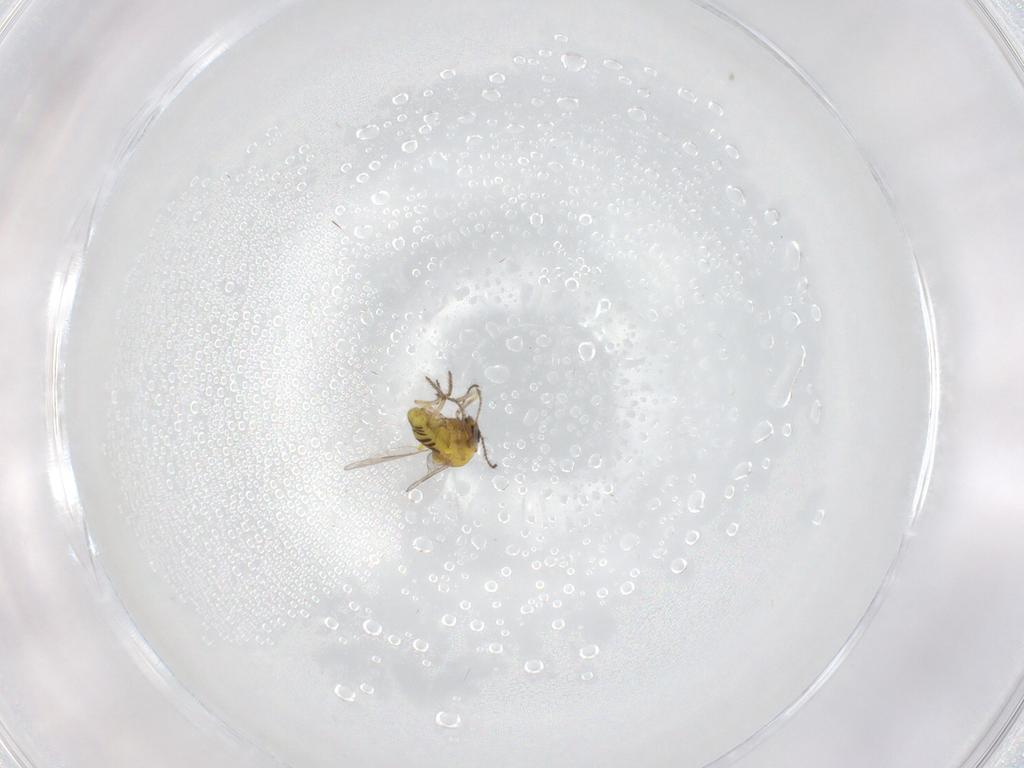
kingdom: Animalia
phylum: Arthropoda
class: Insecta
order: Diptera
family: Ceratopogonidae
